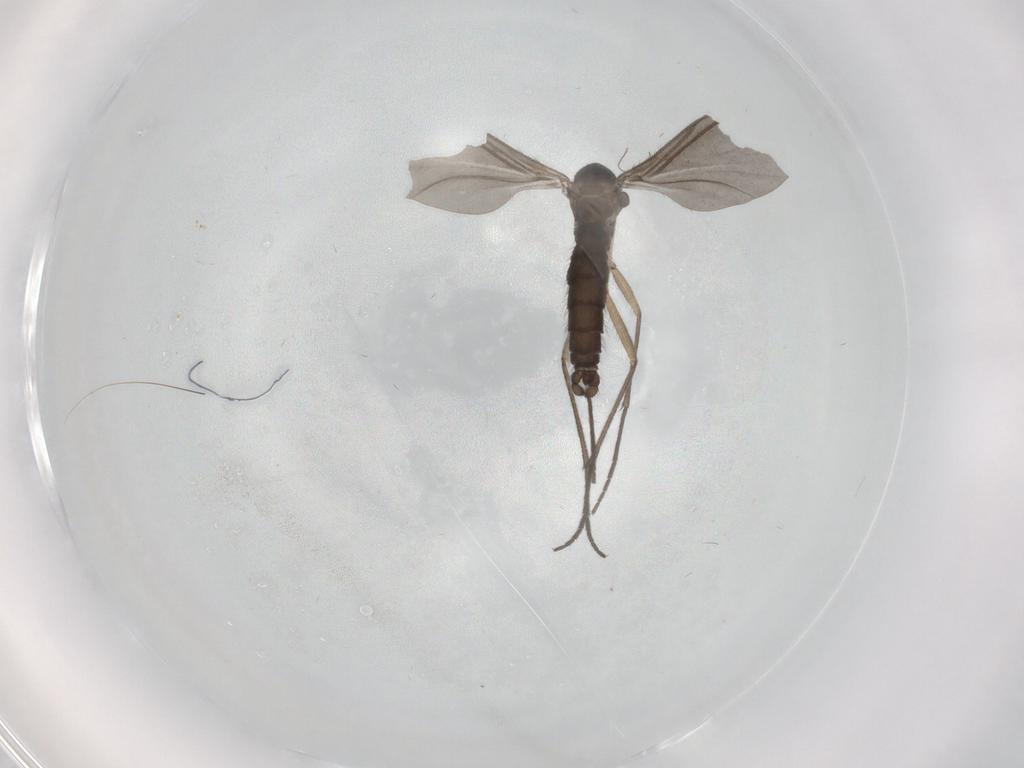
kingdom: Animalia
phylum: Arthropoda
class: Insecta
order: Diptera
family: Sciaridae
